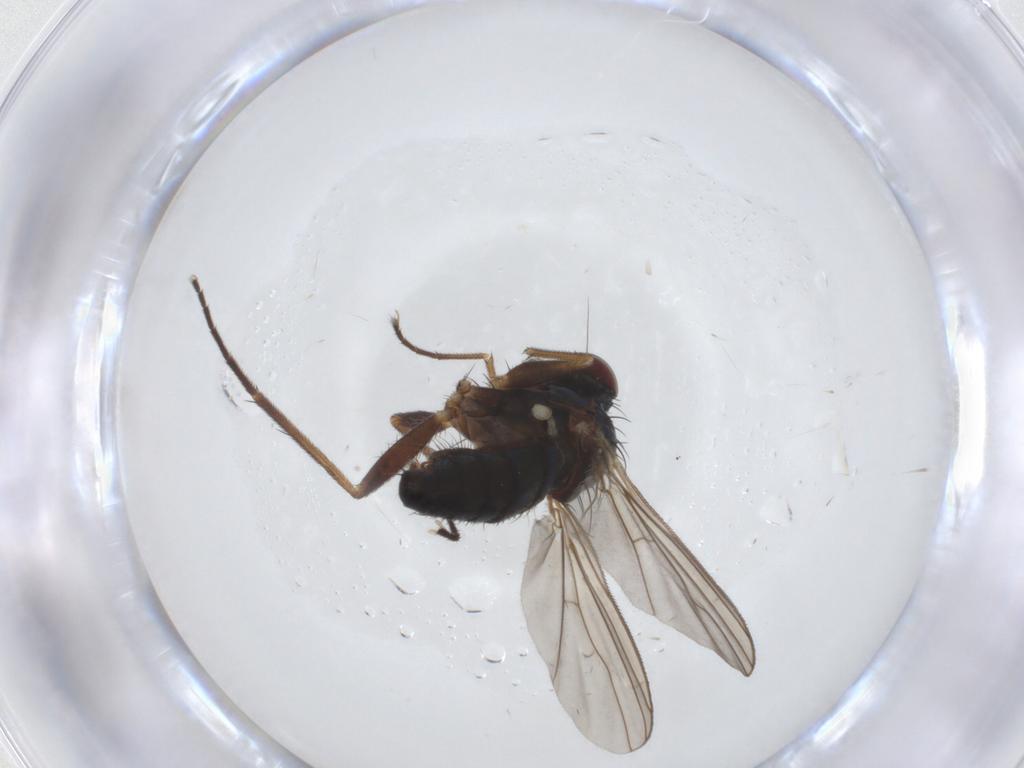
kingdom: Animalia
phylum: Arthropoda
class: Insecta
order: Diptera
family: Dolichopodidae
